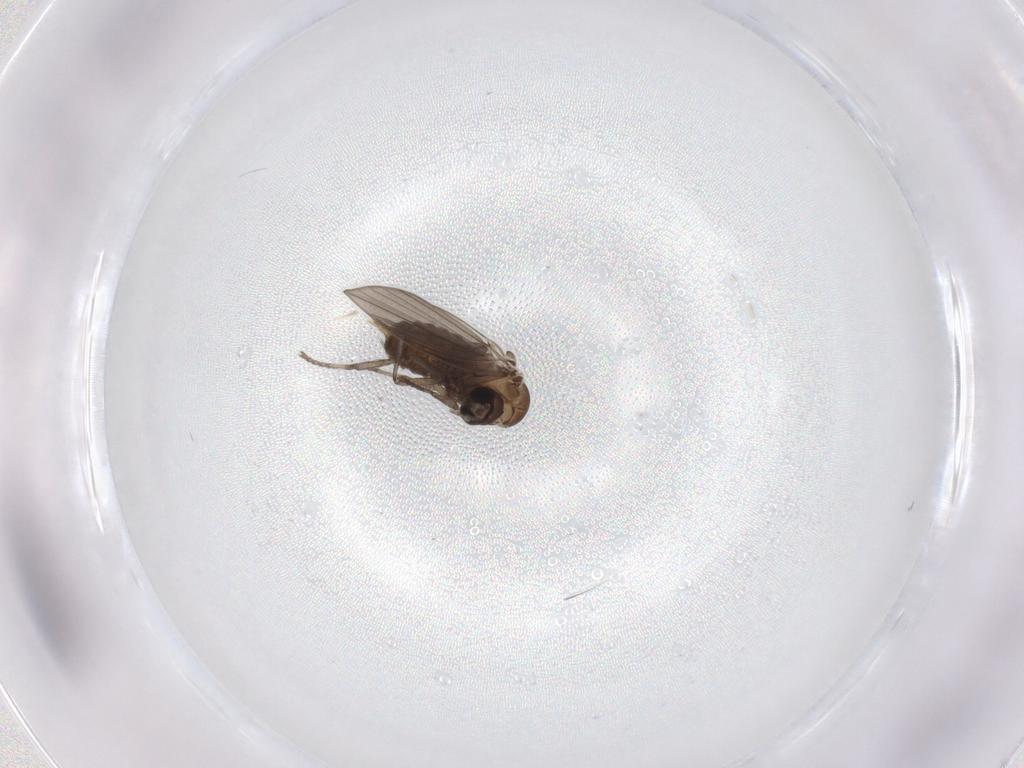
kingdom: Animalia
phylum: Arthropoda
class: Insecta
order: Diptera
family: Psychodidae
